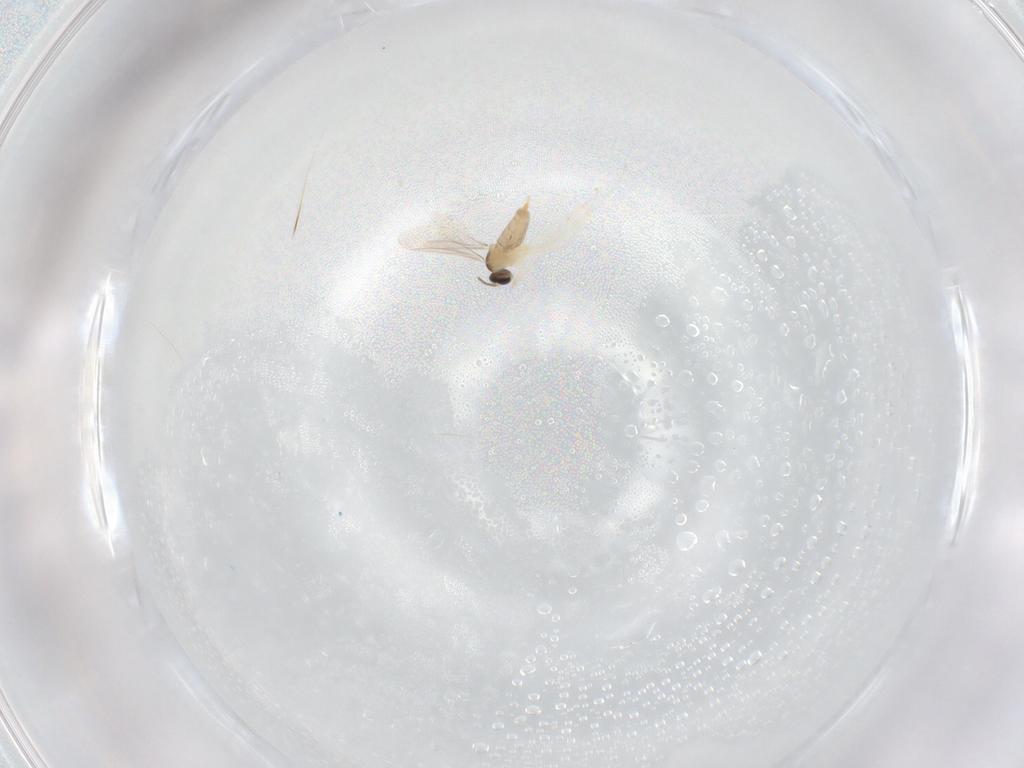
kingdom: Animalia
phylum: Arthropoda
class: Insecta
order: Diptera
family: Cecidomyiidae
